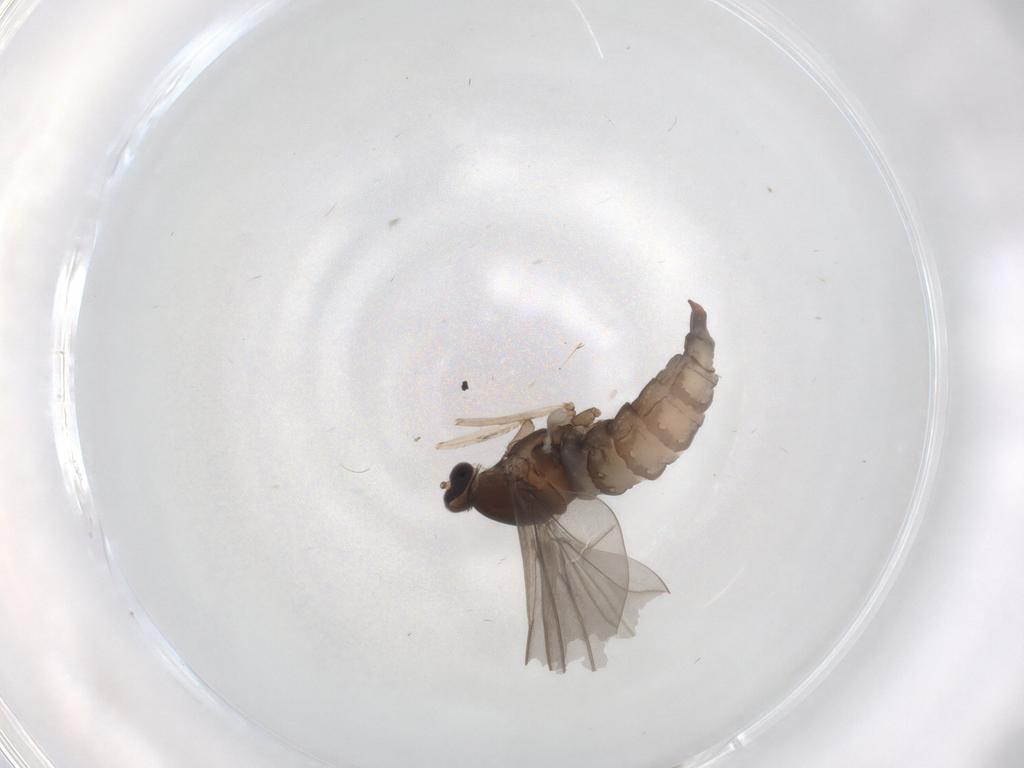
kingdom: Animalia
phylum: Arthropoda
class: Insecta
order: Diptera
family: Cecidomyiidae
